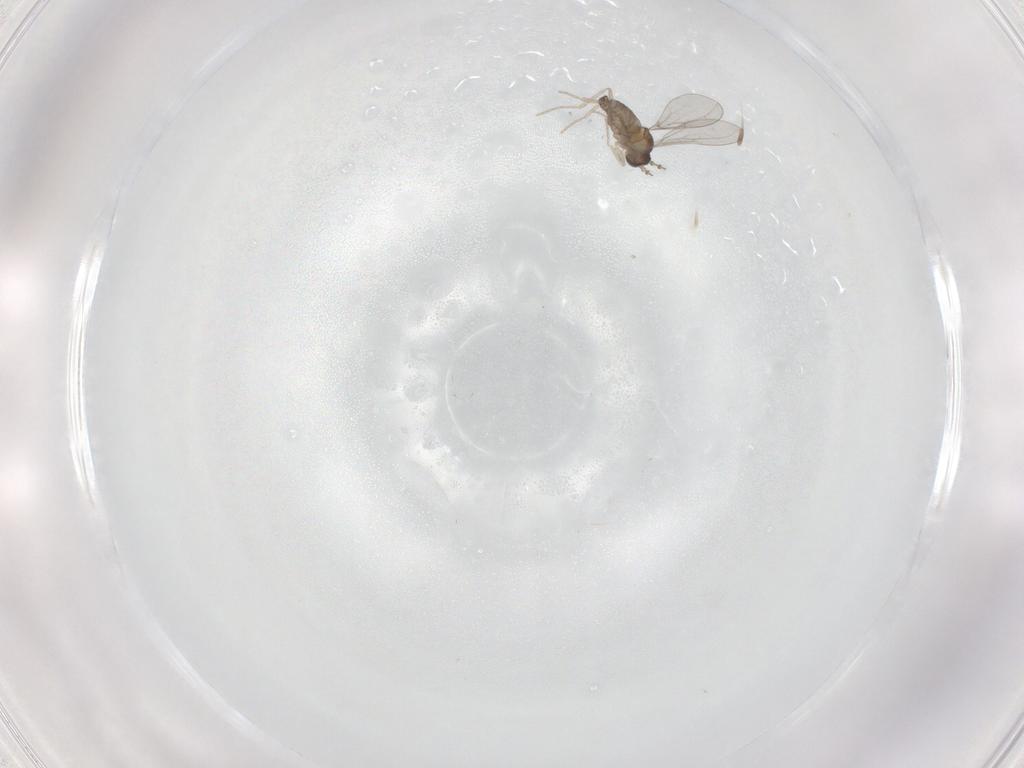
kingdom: Animalia
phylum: Arthropoda
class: Insecta
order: Diptera
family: Cecidomyiidae
